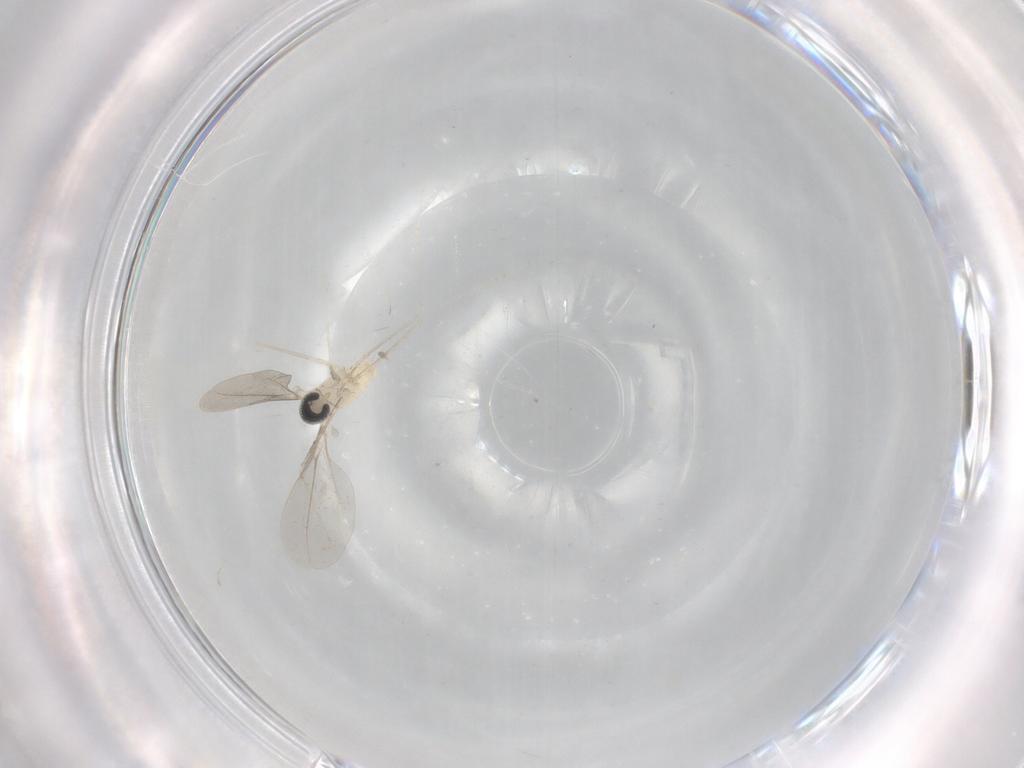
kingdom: Animalia
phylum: Arthropoda
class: Insecta
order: Diptera
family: Cecidomyiidae
